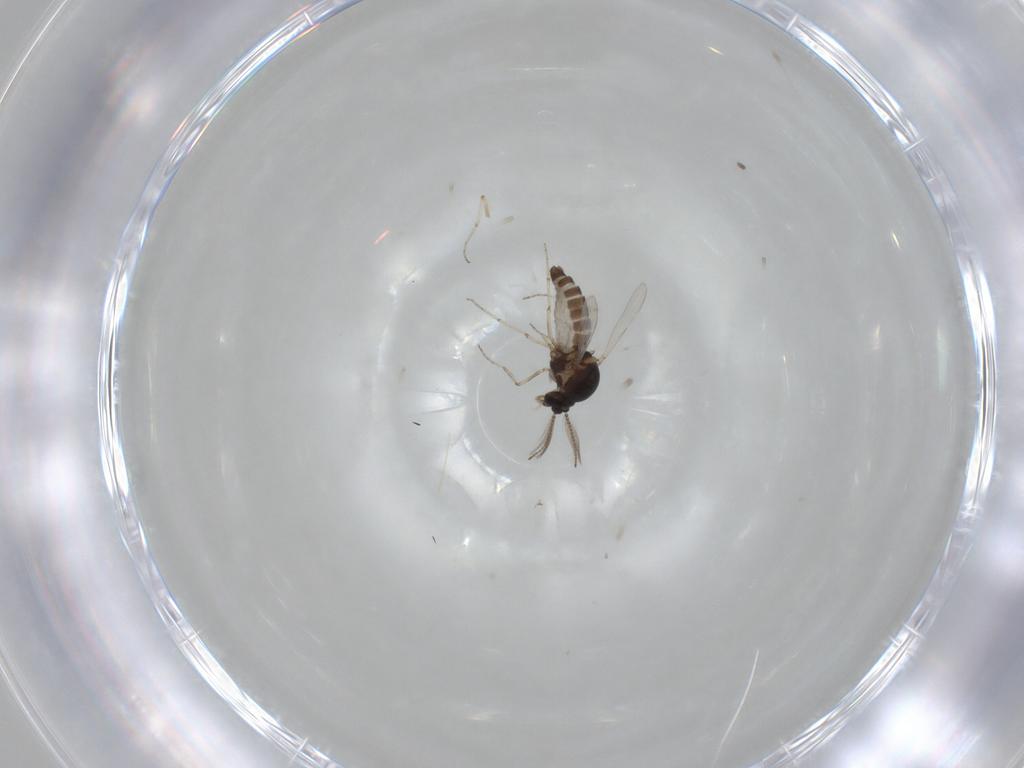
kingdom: Animalia
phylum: Arthropoda
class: Insecta
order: Diptera
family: Ceratopogonidae
